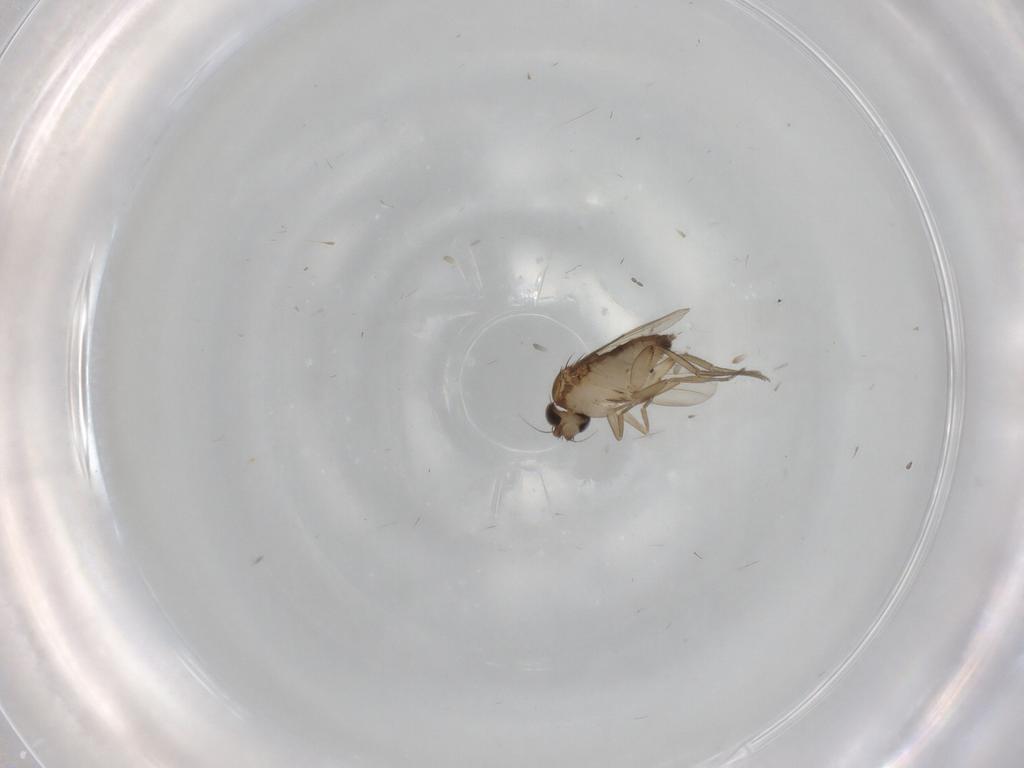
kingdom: Animalia
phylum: Arthropoda
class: Insecta
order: Diptera
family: Phoridae
